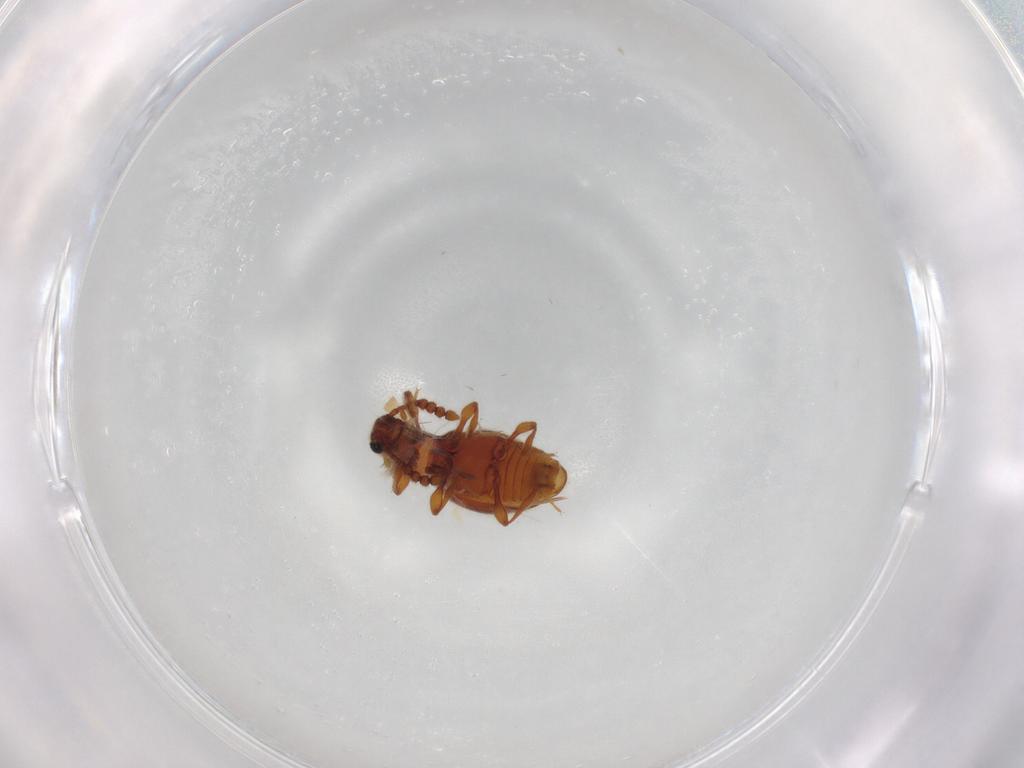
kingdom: Animalia
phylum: Arthropoda
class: Insecta
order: Coleoptera
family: Staphylinidae
